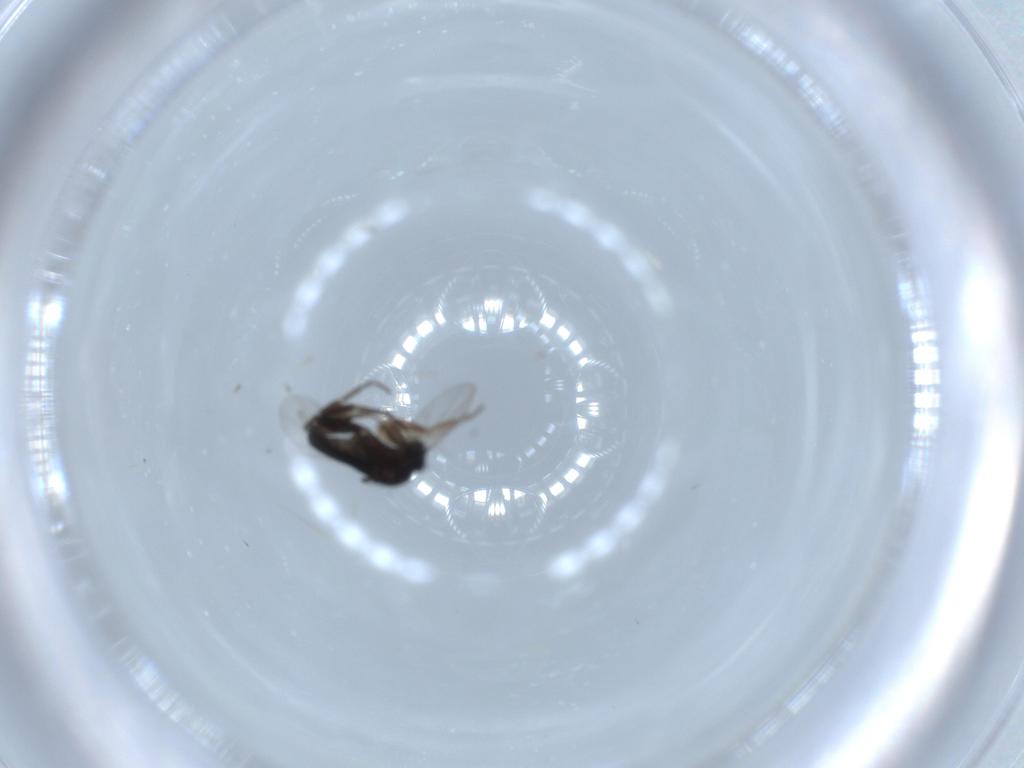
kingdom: Animalia
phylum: Arthropoda
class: Insecta
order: Diptera
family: Phoridae
